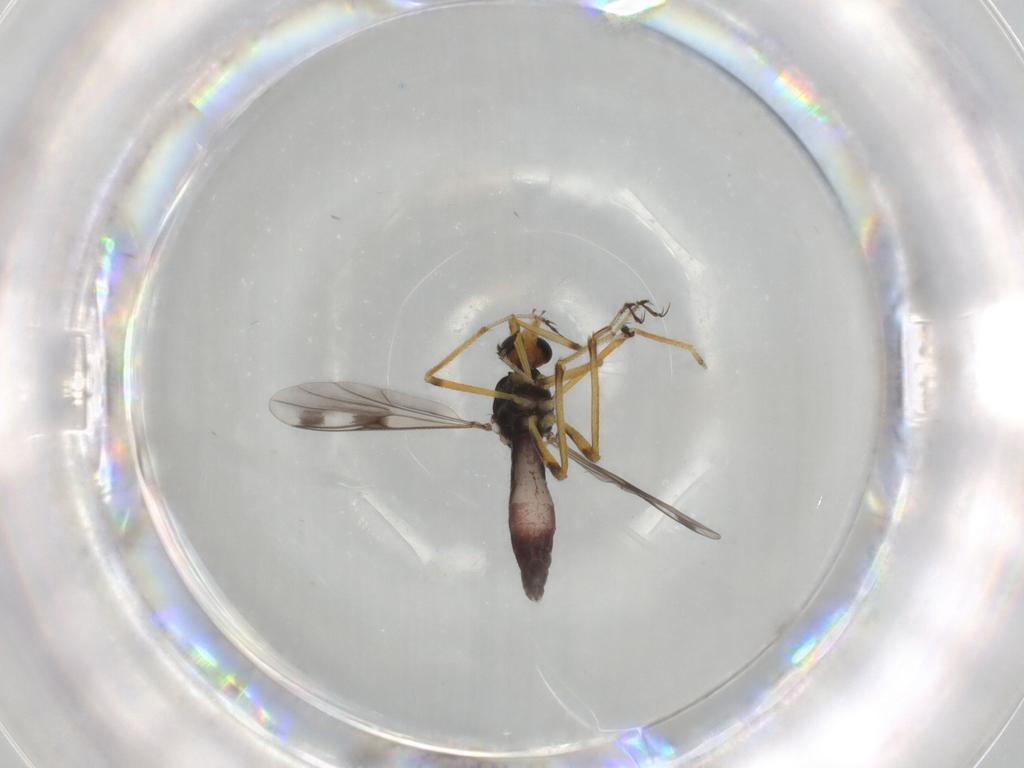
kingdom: Animalia
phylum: Arthropoda
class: Insecta
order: Diptera
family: Ceratopogonidae
